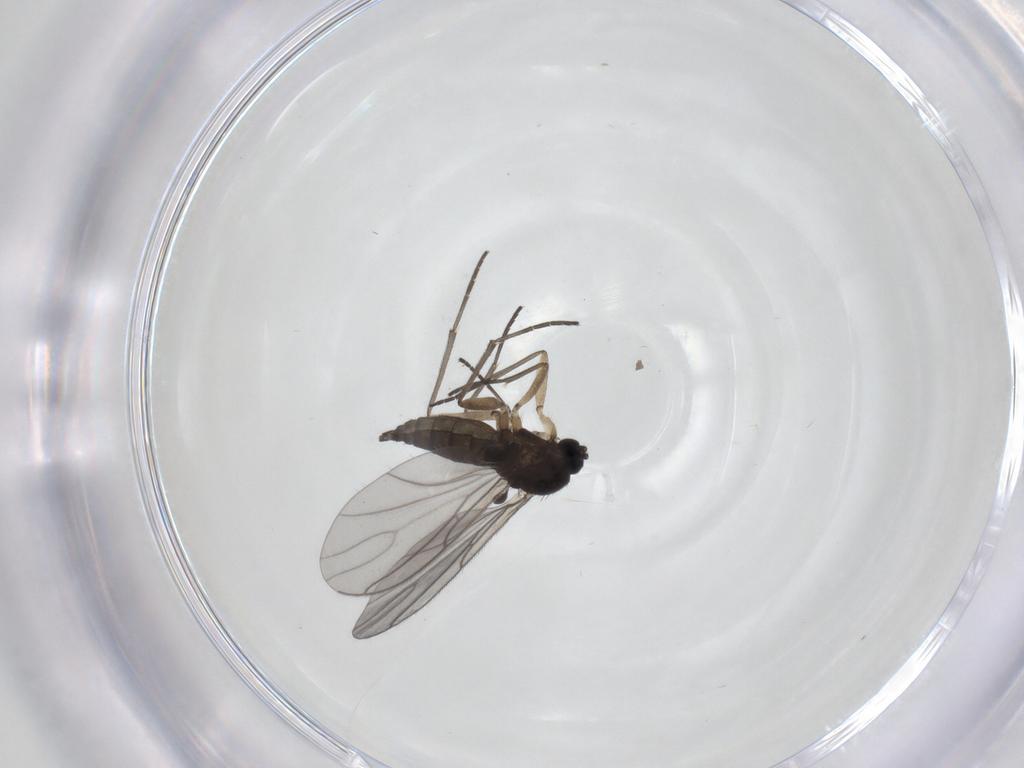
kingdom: Animalia
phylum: Arthropoda
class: Insecta
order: Diptera
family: Sciaridae
